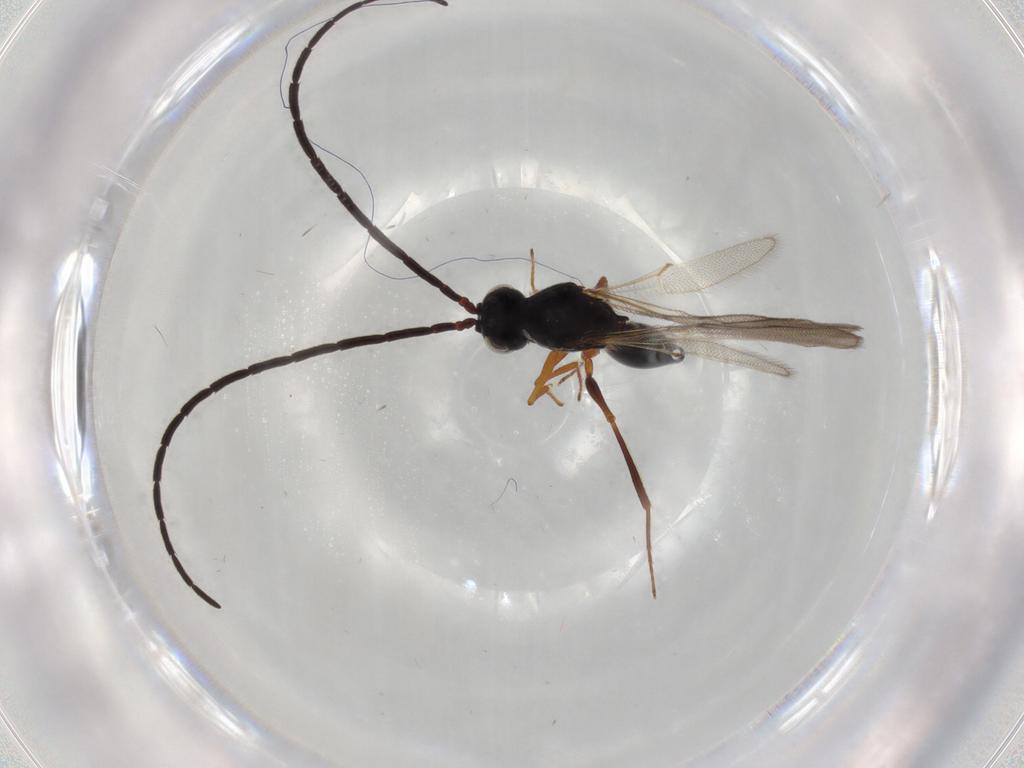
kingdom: Animalia
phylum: Arthropoda
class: Insecta
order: Hymenoptera
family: Figitidae
